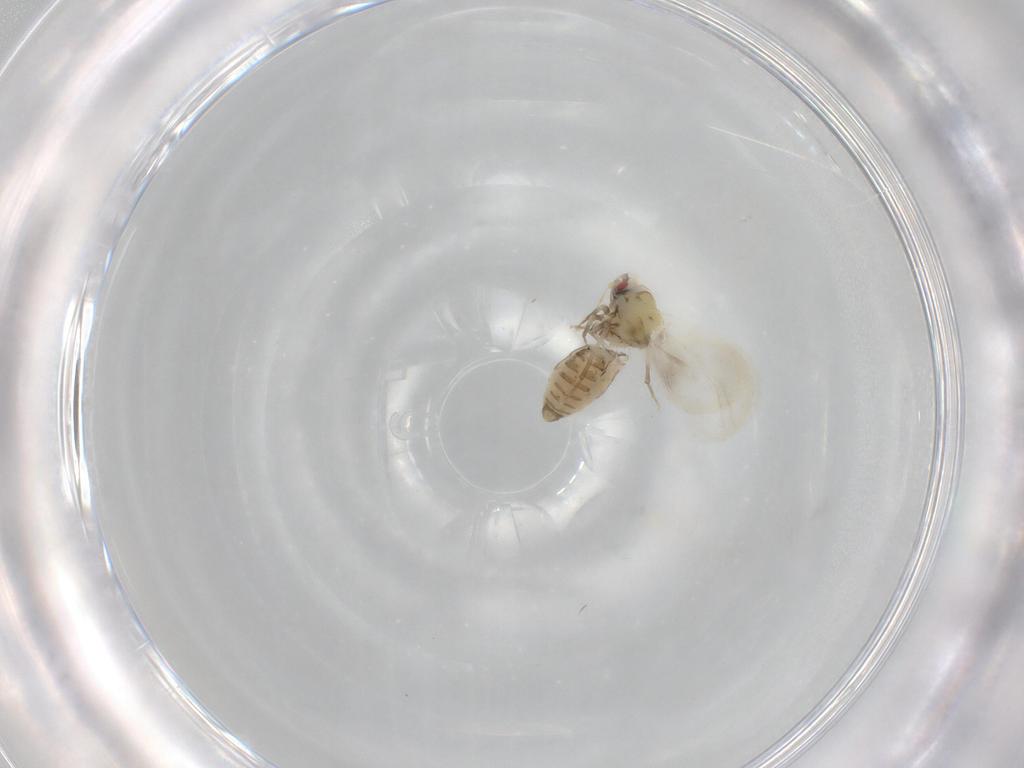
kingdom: Animalia
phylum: Arthropoda
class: Insecta
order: Hemiptera
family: Aleyrodidae
